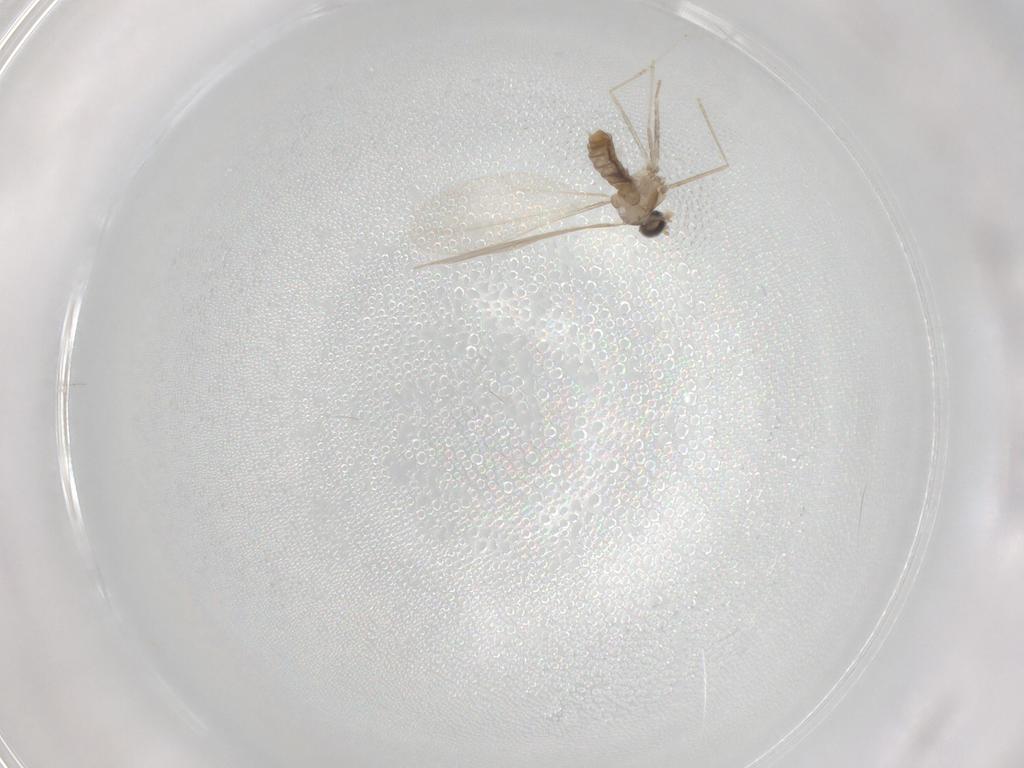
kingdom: Animalia
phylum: Arthropoda
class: Insecta
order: Diptera
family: Cecidomyiidae
